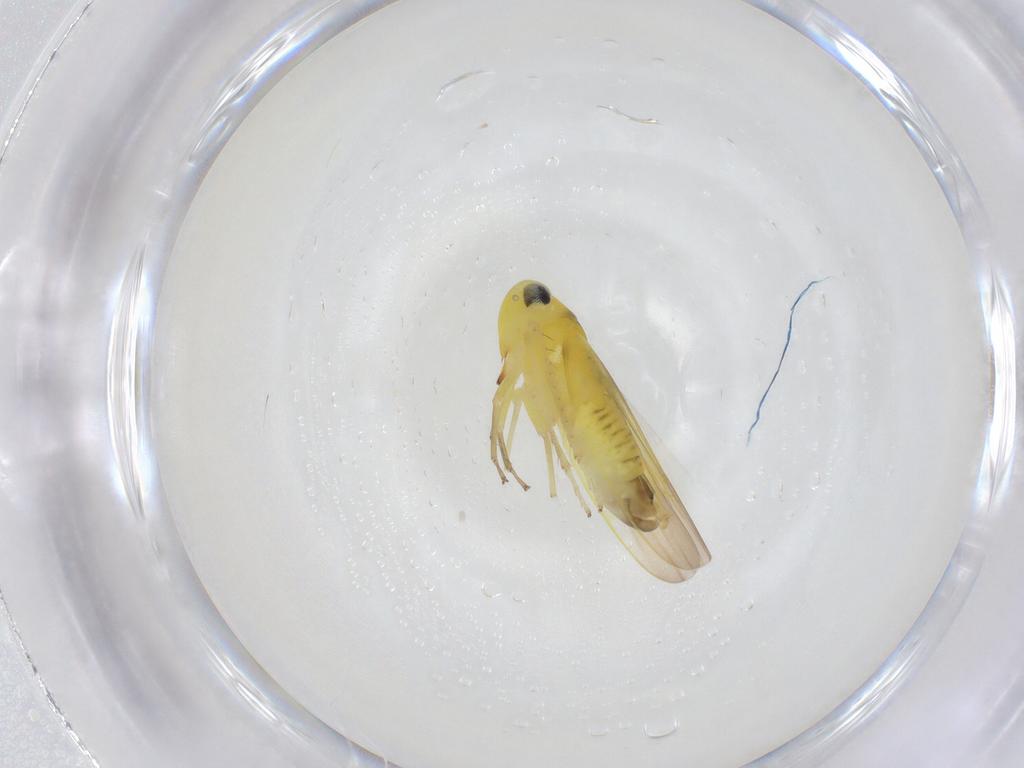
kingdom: Animalia
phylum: Arthropoda
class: Insecta
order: Hemiptera
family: Cicadellidae
